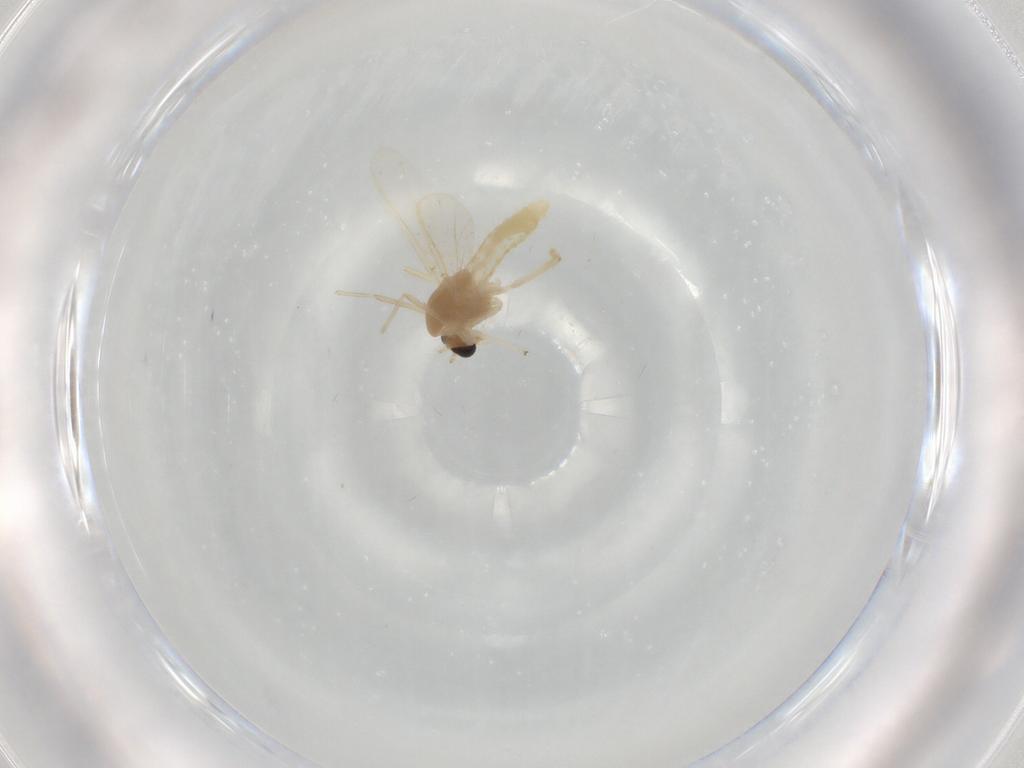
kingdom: Animalia
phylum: Arthropoda
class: Insecta
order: Diptera
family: Chironomidae
